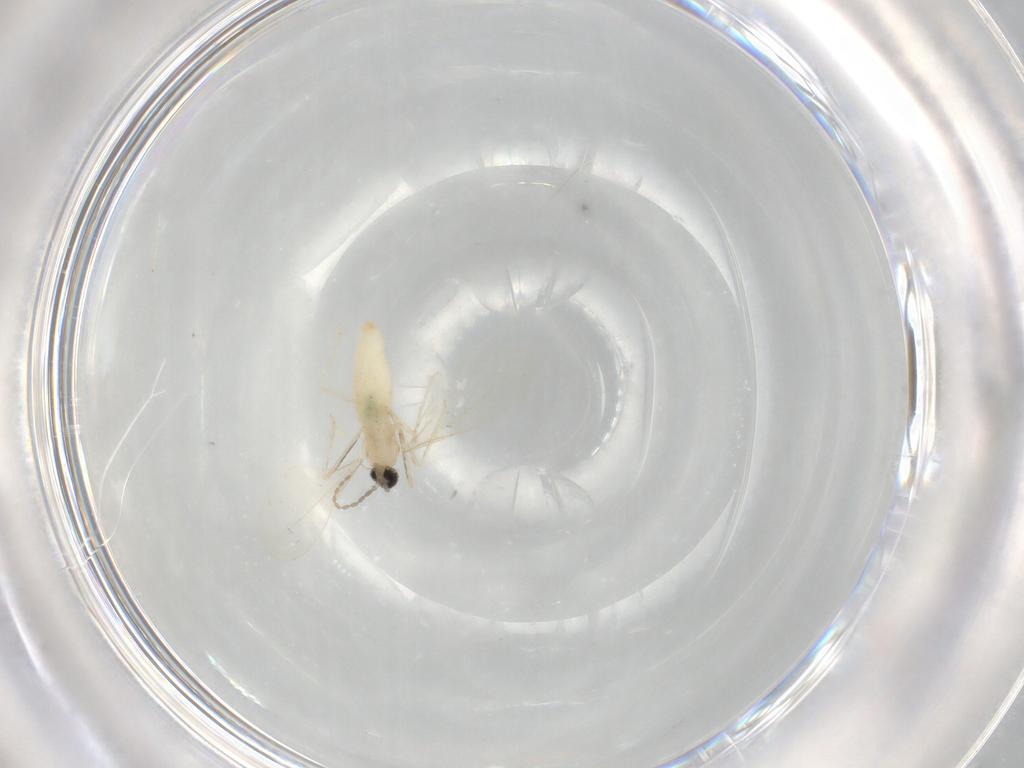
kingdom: Animalia
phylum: Arthropoda
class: Insecta
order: Diptera
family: Cecidomyiidae
